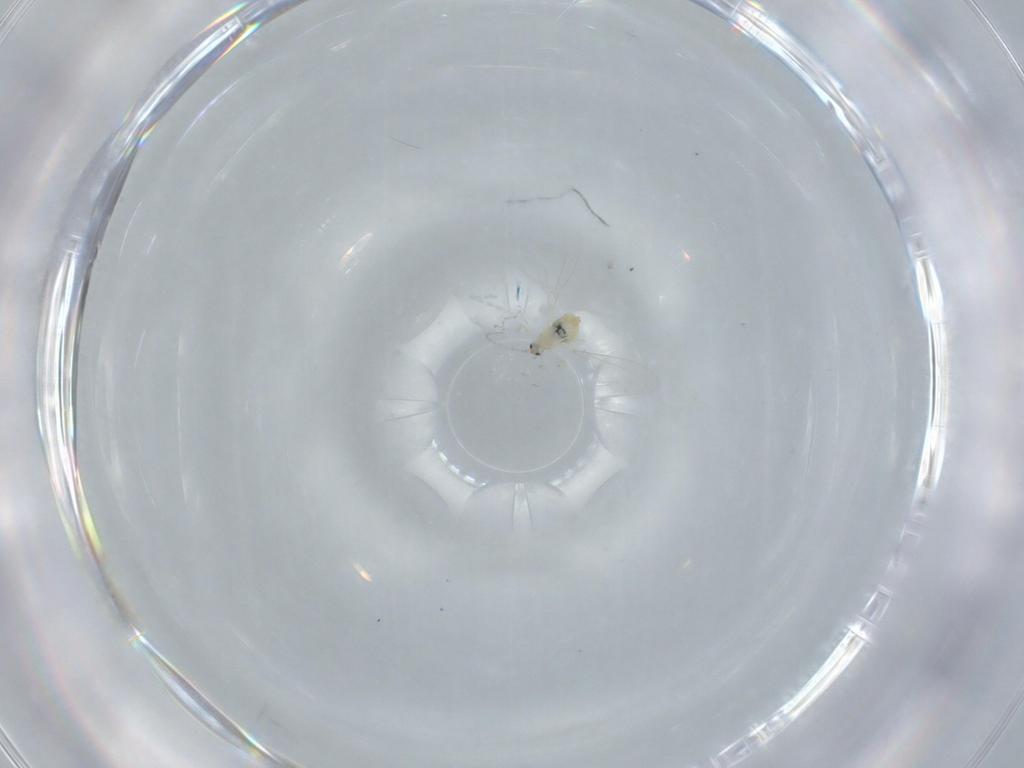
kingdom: Animalia
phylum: Arthropoda
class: Insecta
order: Diptera
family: Cecidomyiidae
